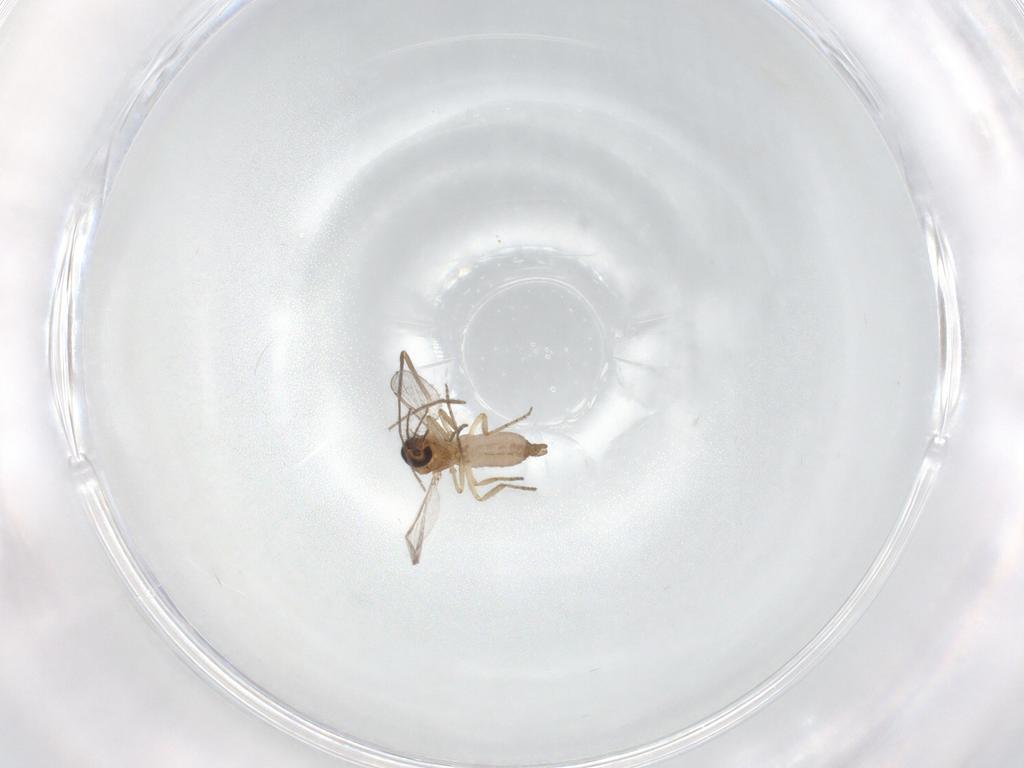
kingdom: Animalia
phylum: Arthropoda
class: Insecta
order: Diptera
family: Chironomidae
